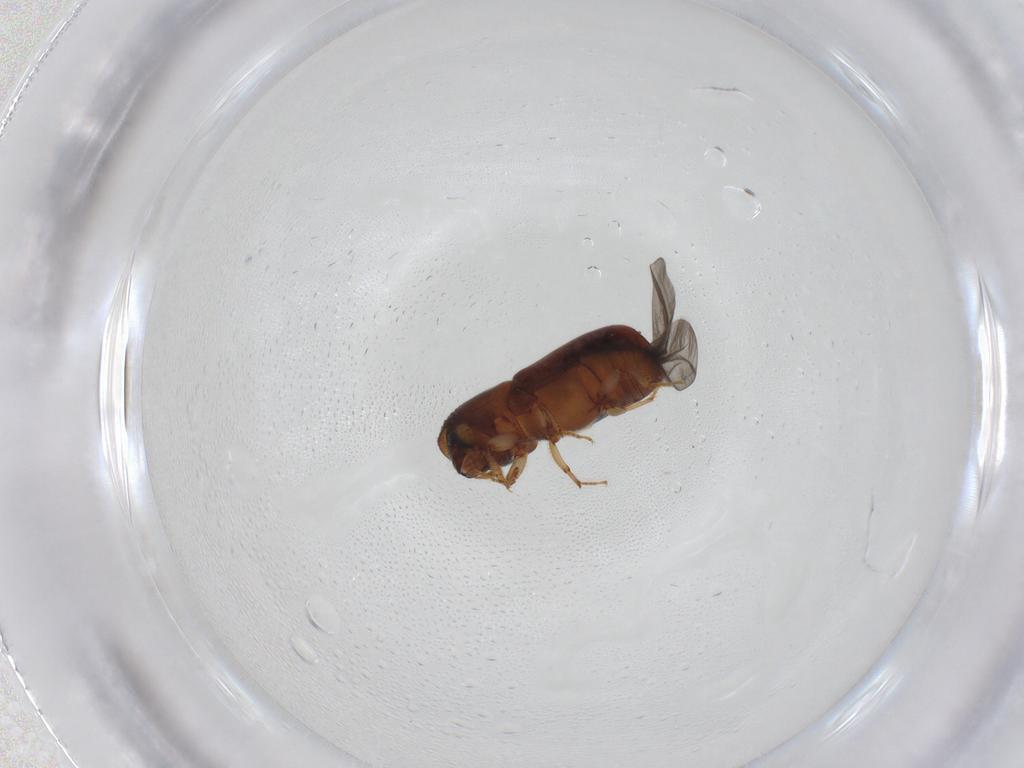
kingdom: Animalia
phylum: Arthropoda
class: Insecta
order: Coleoptera
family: Curculionidae
